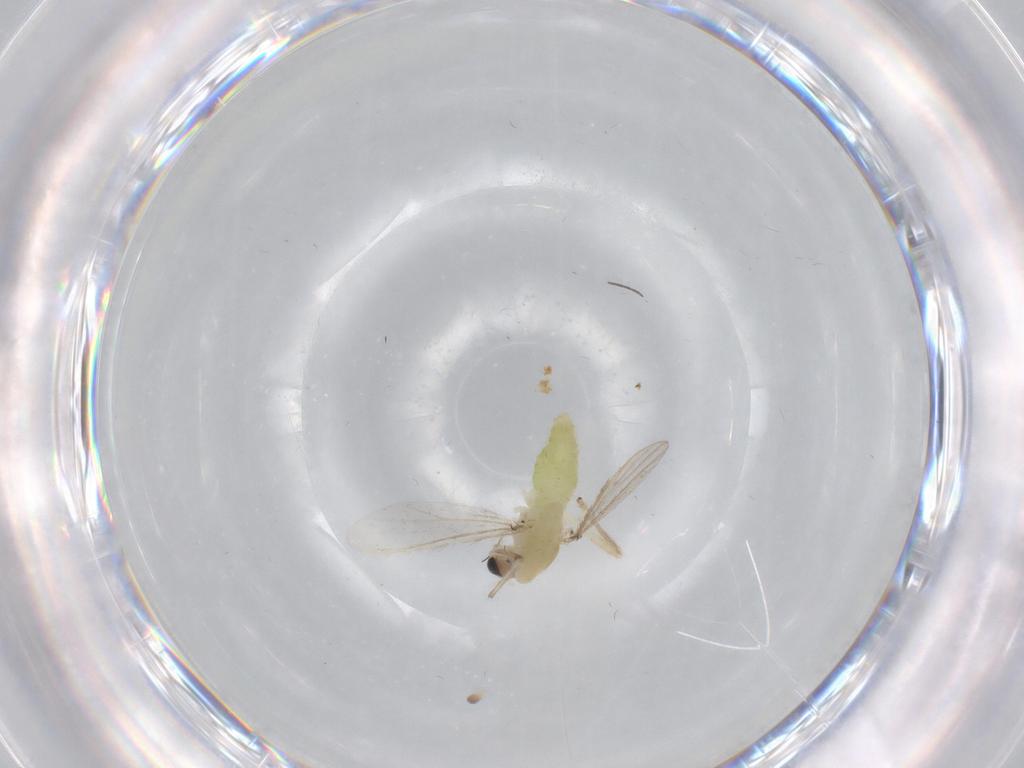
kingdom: Animalia
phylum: Arthropoda
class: Insecta
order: Diptera
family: Chironomidae
